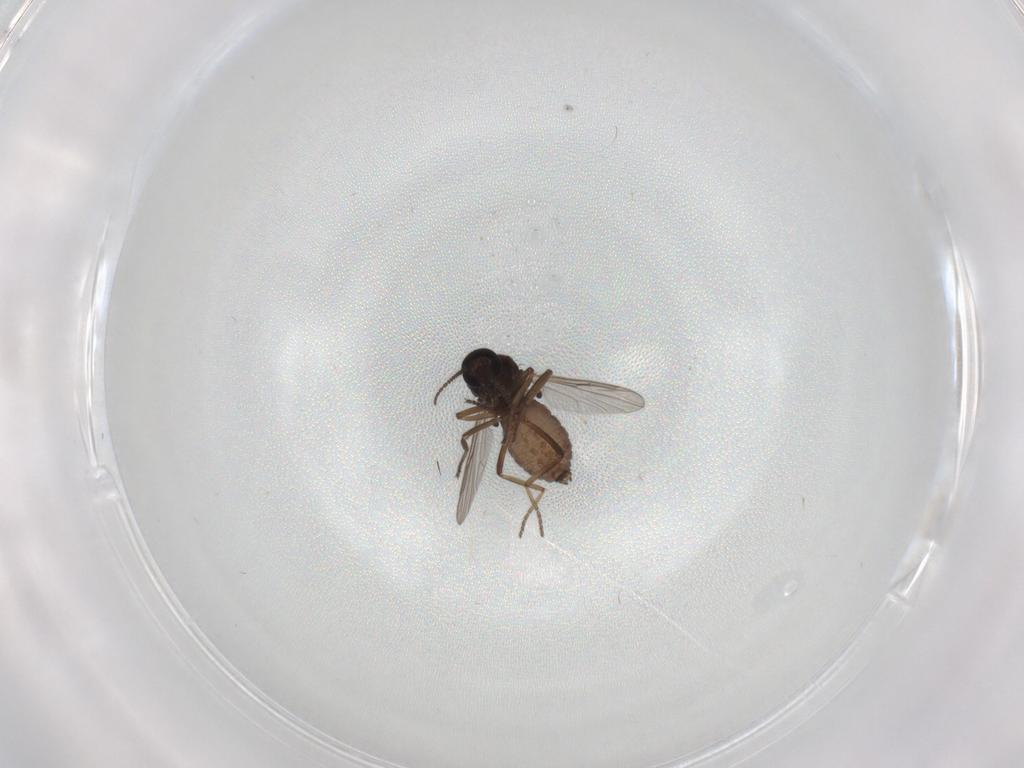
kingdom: Animalia
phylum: Arthropoda
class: Insecta
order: Diptera
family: Ceratopogonidae
